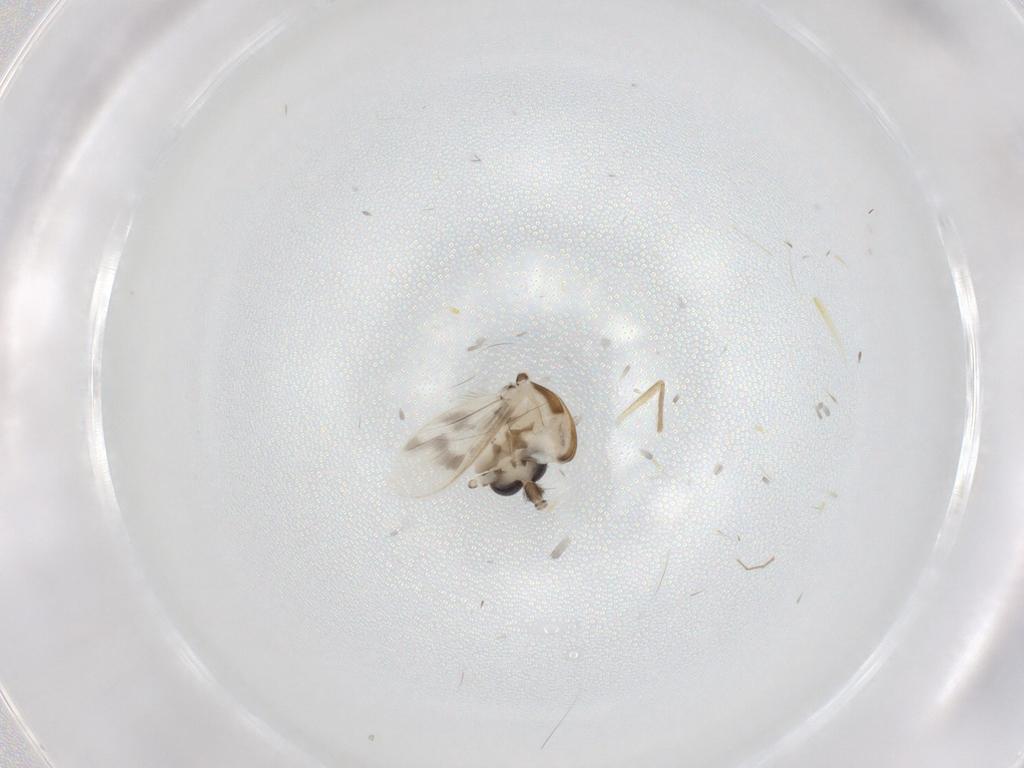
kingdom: Animalia
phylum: Arthropoda
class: Insecta
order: Diptera
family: Corethrellidae
